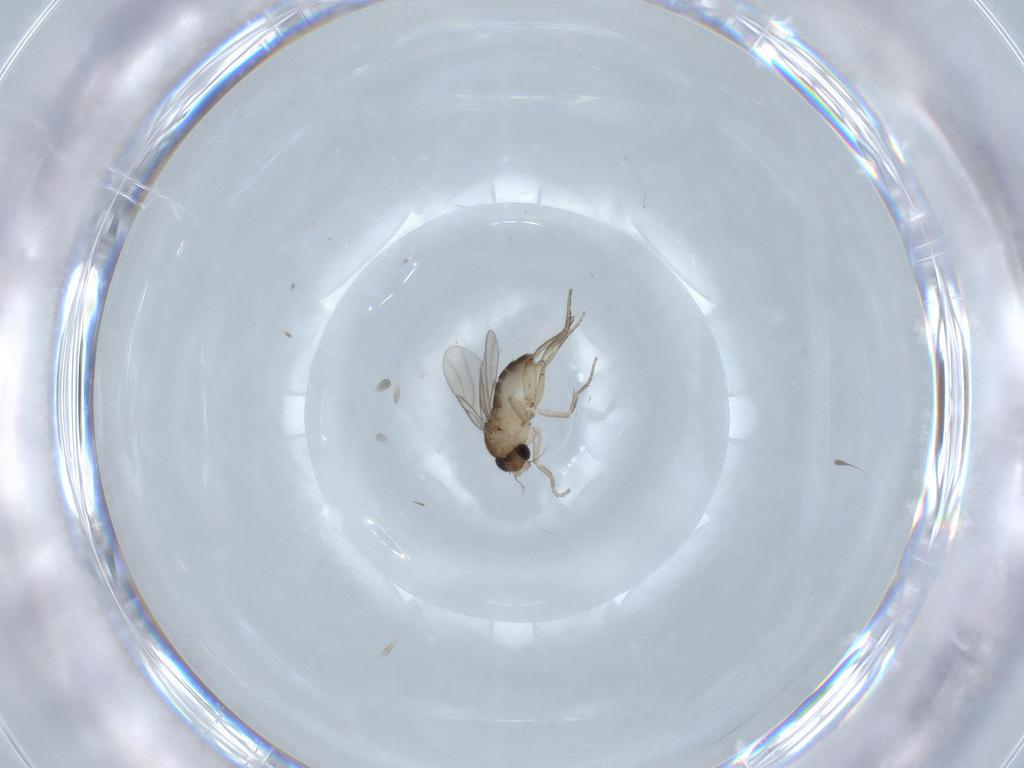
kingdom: Animalia
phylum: Arthropoda
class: Insecta
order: Diptera
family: Phoridae
